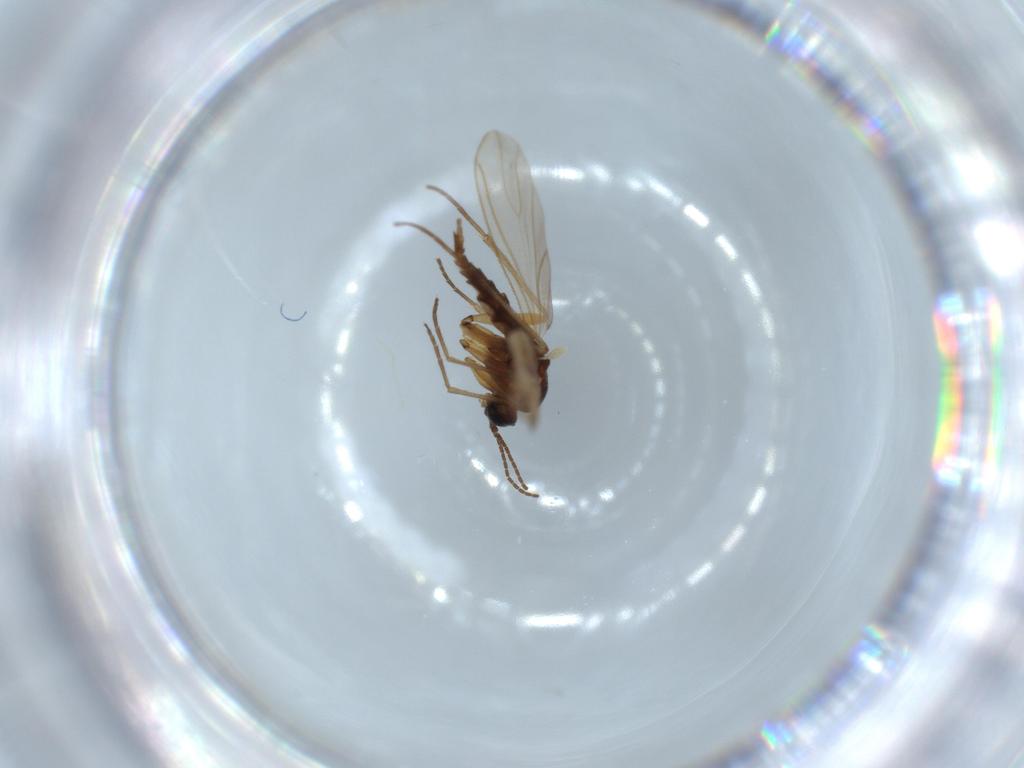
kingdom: Animalia
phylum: Arthropoda
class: Insecta
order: Diptera
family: Sciaridae
